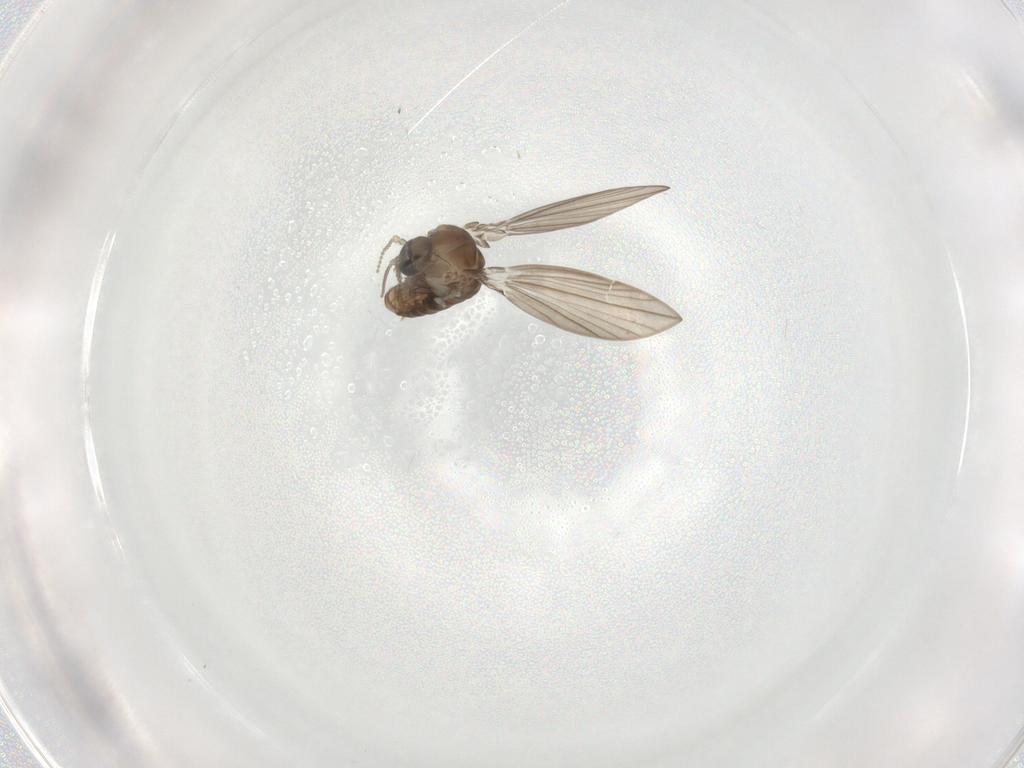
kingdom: Animalia
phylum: Arthropoda
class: Insecta
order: Diptera
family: Psychodidae
